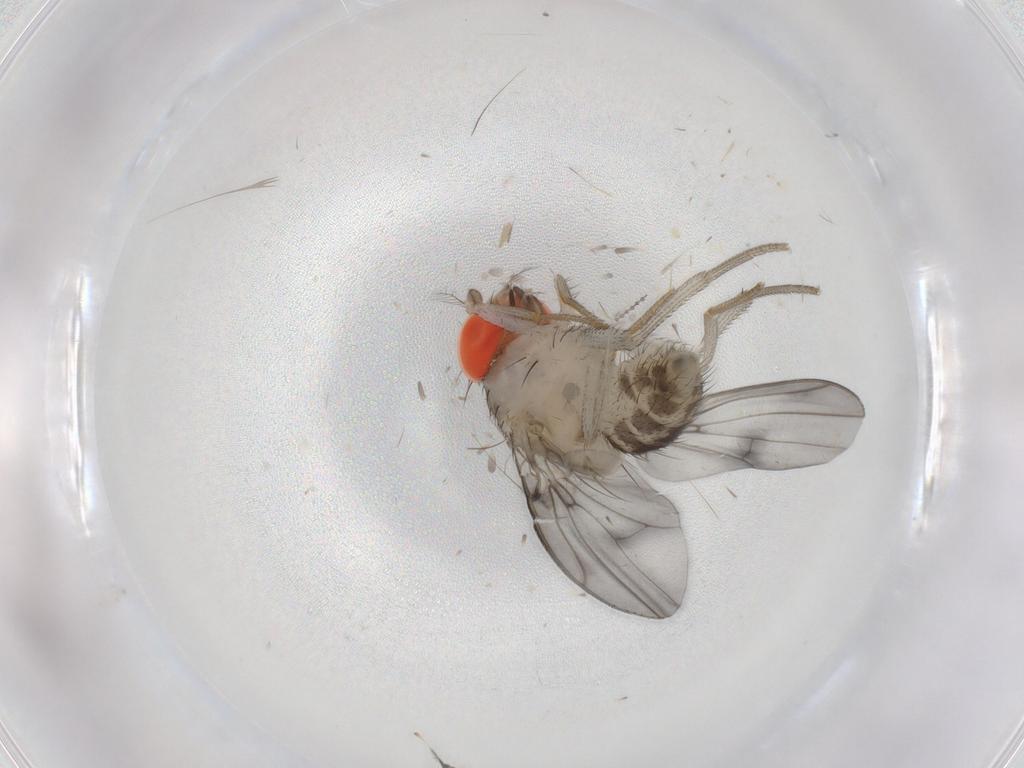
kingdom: Animalia
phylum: Arthropoda
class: Insecta
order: Diptera
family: Drosophilidae
